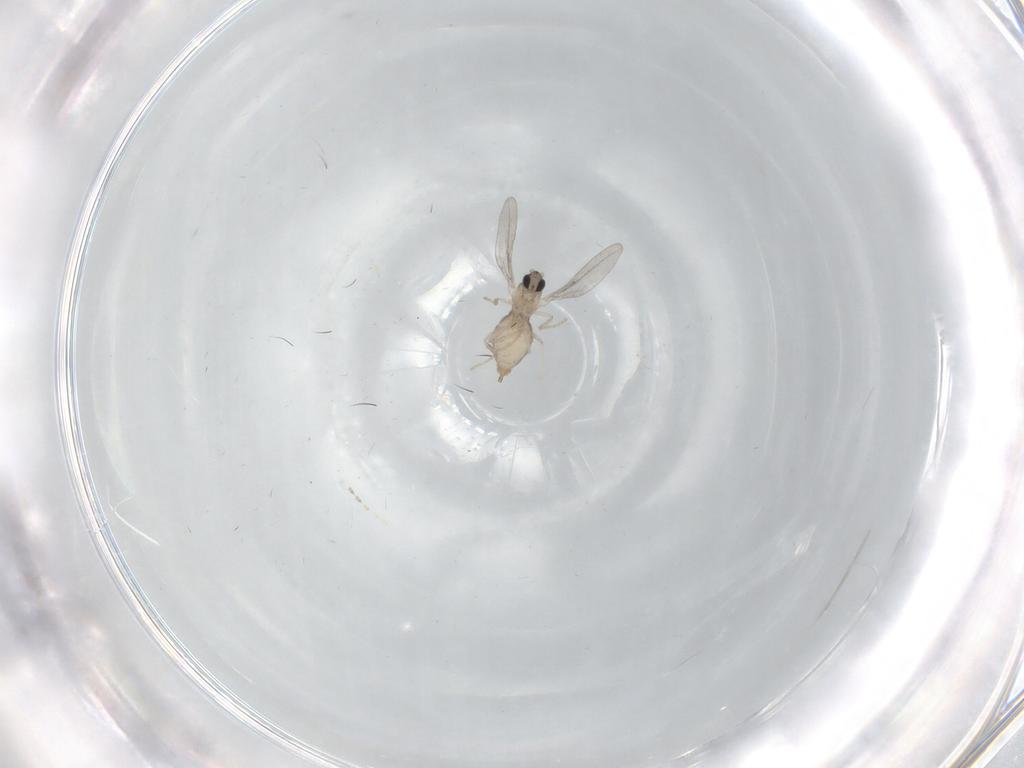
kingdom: Animalia
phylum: Arthropoda
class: Insecta
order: Diptera
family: Cecidomyiidae
